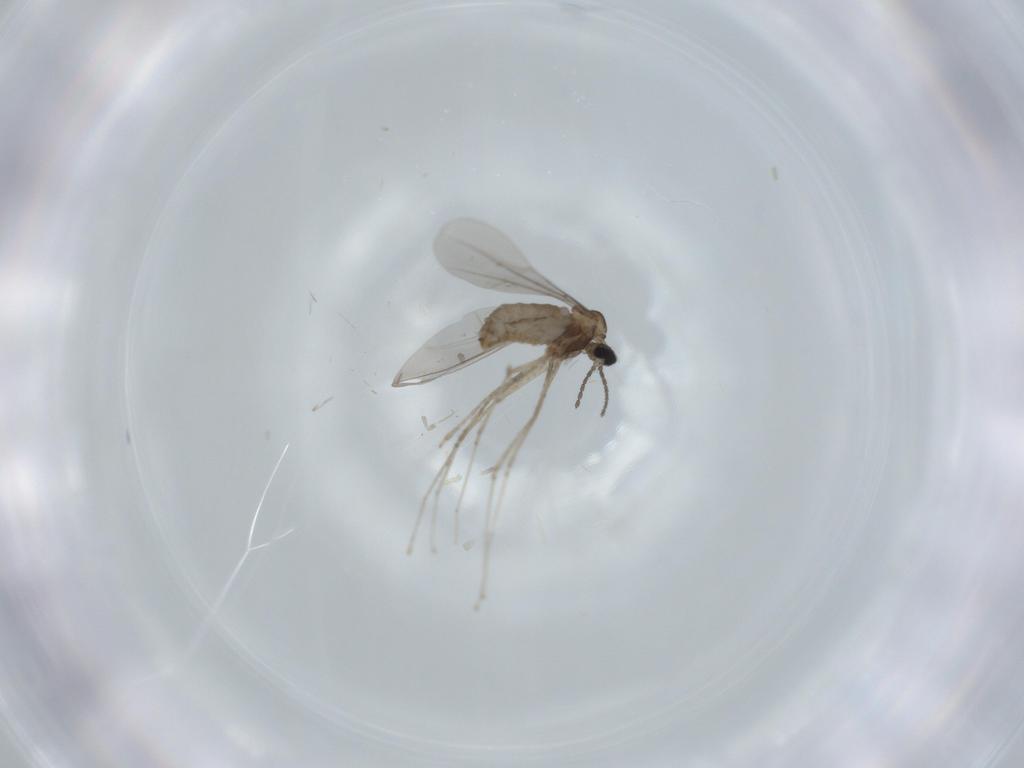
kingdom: Animalia
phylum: Arthropoda
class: Insecta
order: Diptera
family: Cecidomyiidae
